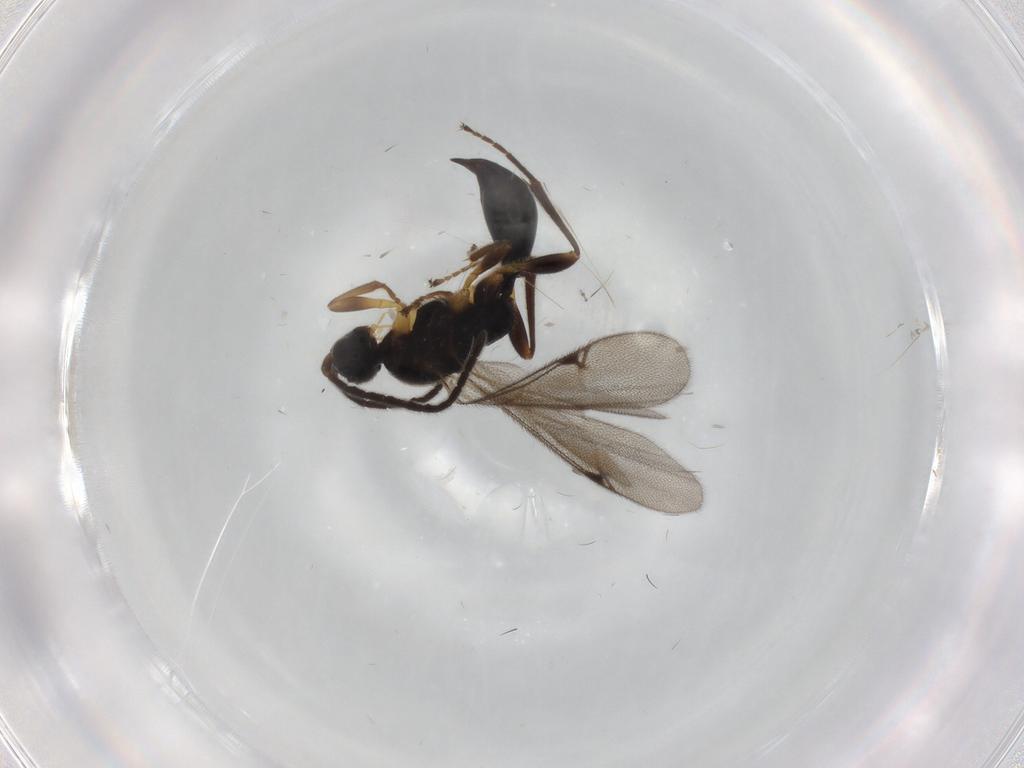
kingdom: Animalia
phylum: Arthropoda
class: Insecta
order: Hymenoptera
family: Proctotrupidae
